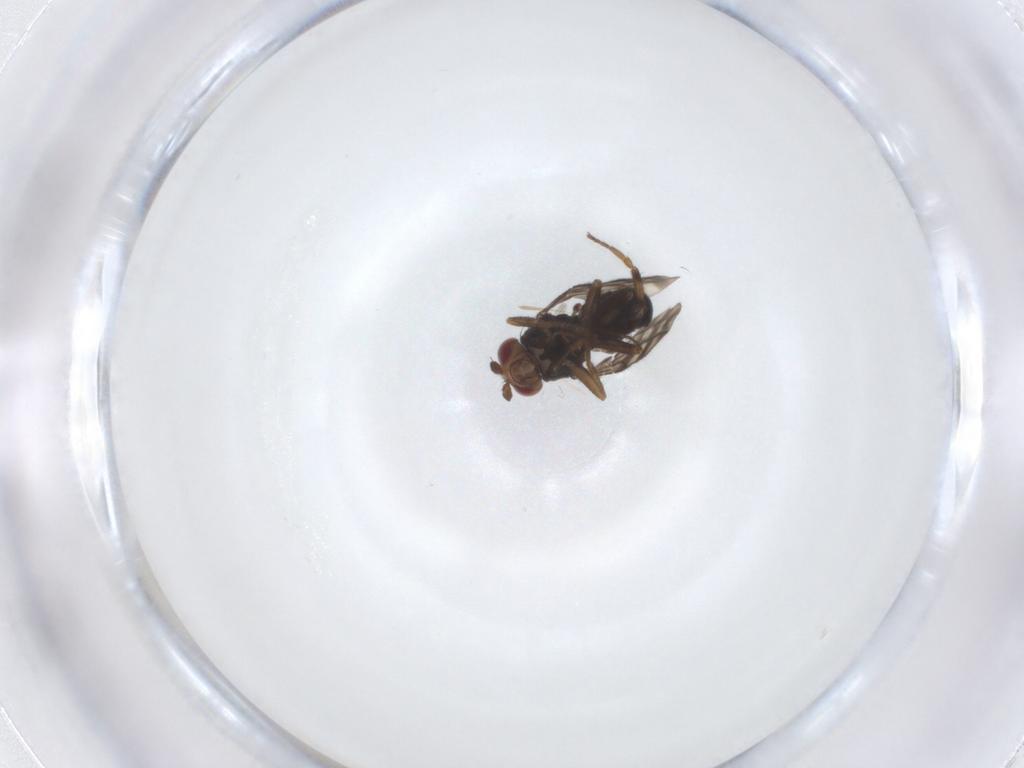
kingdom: Animalia
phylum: Arthropoda
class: Insecta
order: Diptera
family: Sphaeroceridae
